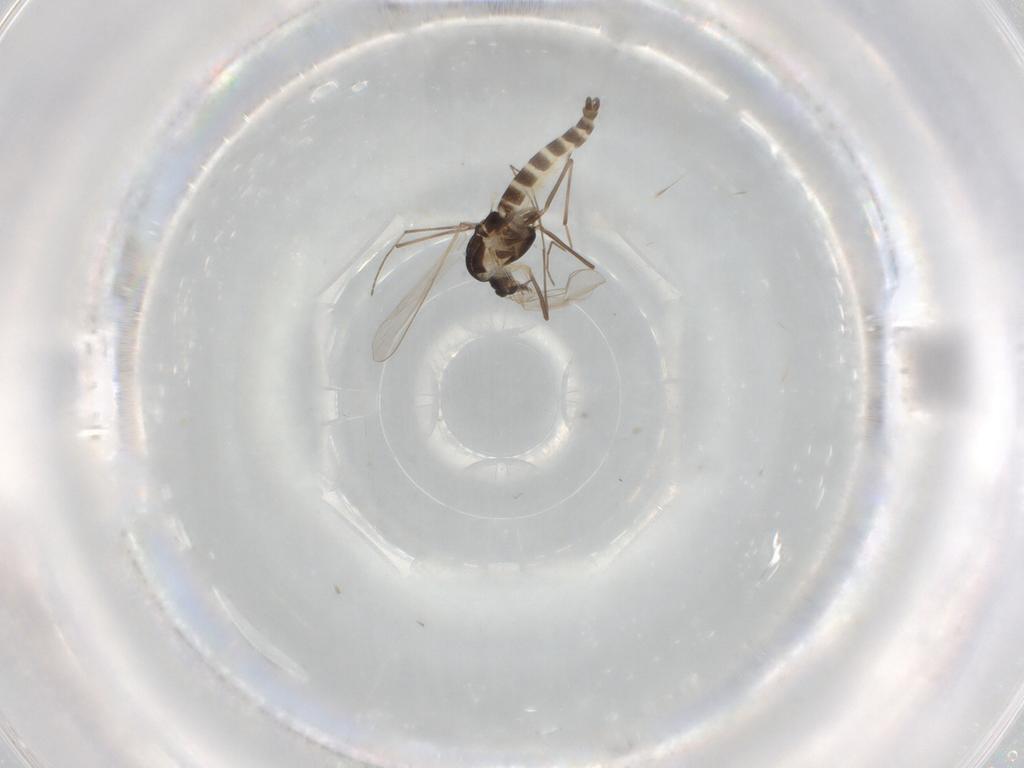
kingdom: Animalia
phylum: Arthropoda
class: Insecta
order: Diptera
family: Chironomidae
